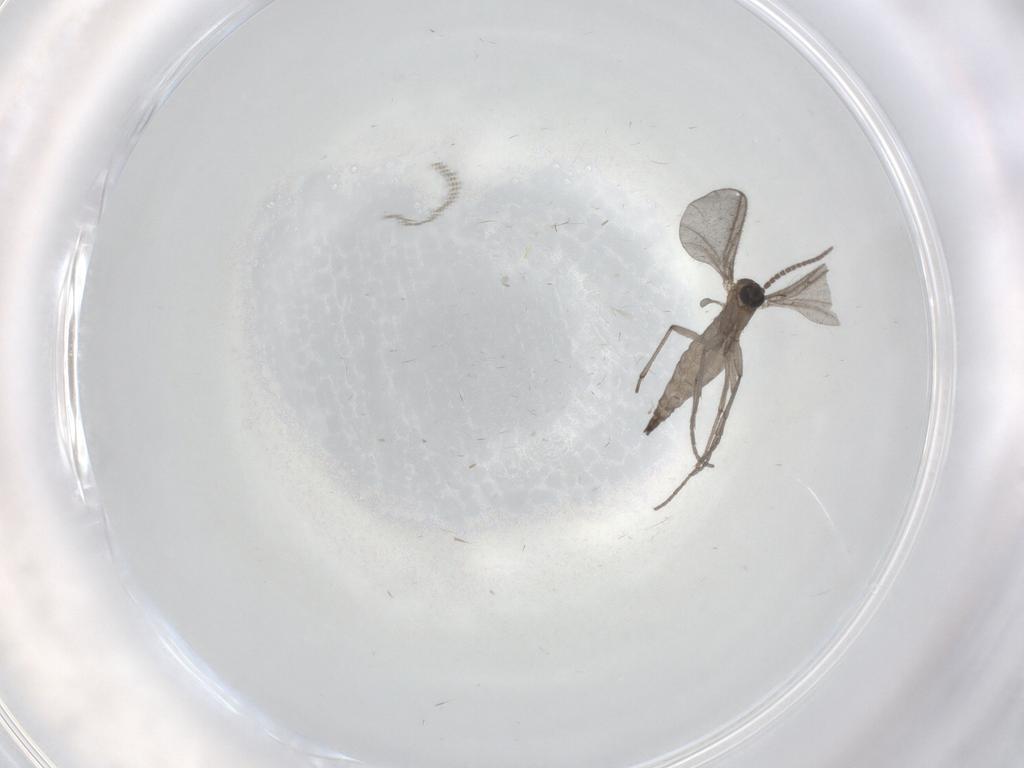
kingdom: Animalia
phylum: Arthropoda
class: Insecta
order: Diptera
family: Sciaridae
